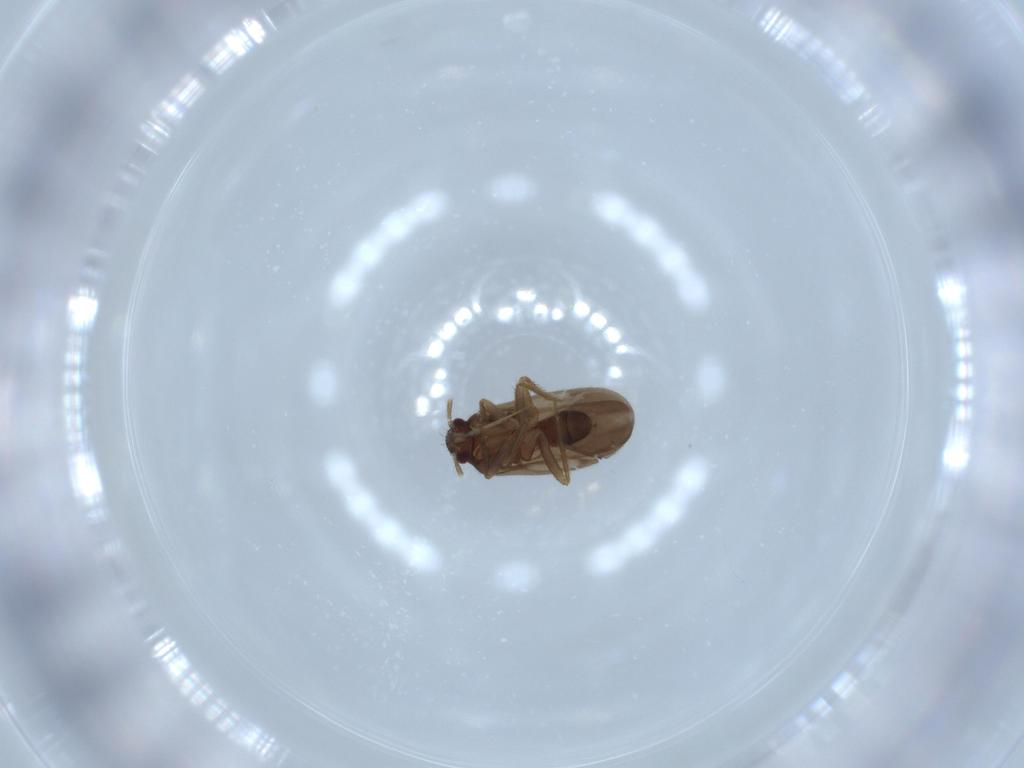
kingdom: Animalia
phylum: Arthropoda
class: Insecta
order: Hemiptera
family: Ceratocombidae
